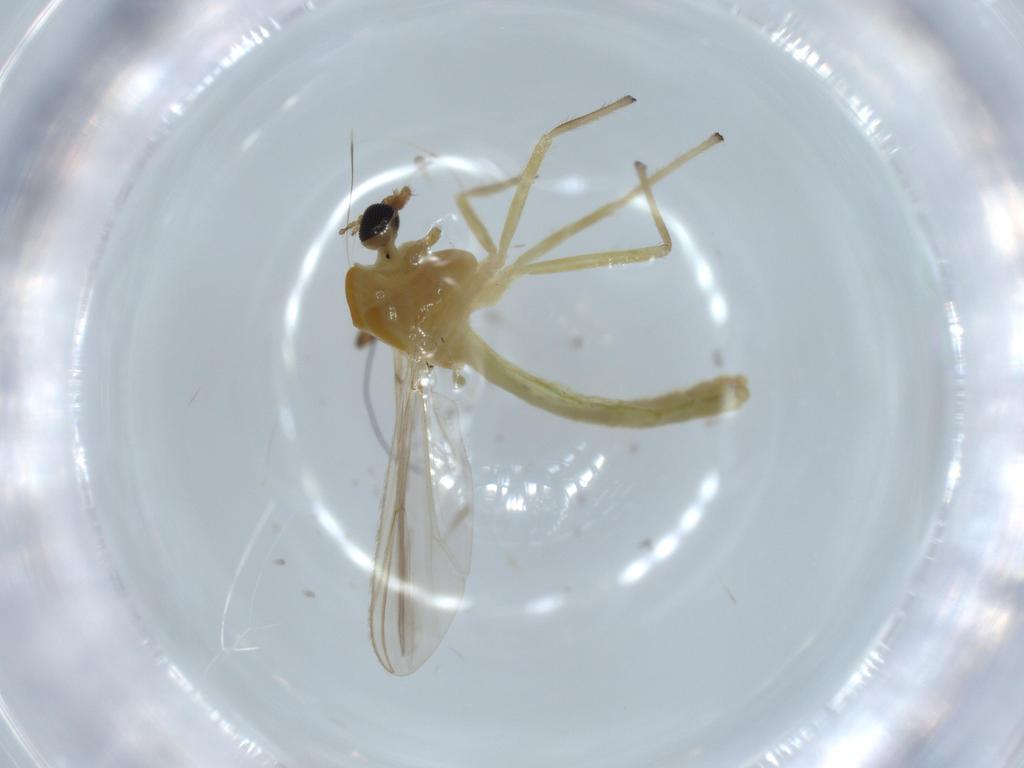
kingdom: Animalia
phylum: Arthropoda
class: Insecta
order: Diptera
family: Chironomidae
